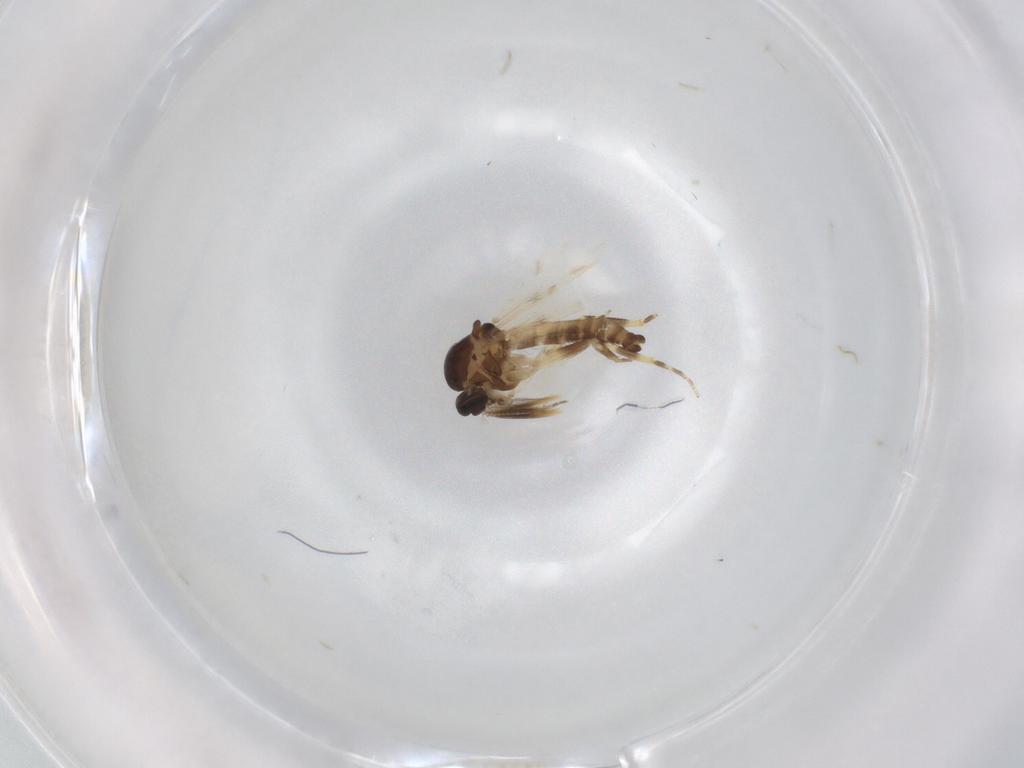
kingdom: Animalia
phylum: Arthropoda
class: Insecta
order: Diptera
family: Ceratopogonidae
